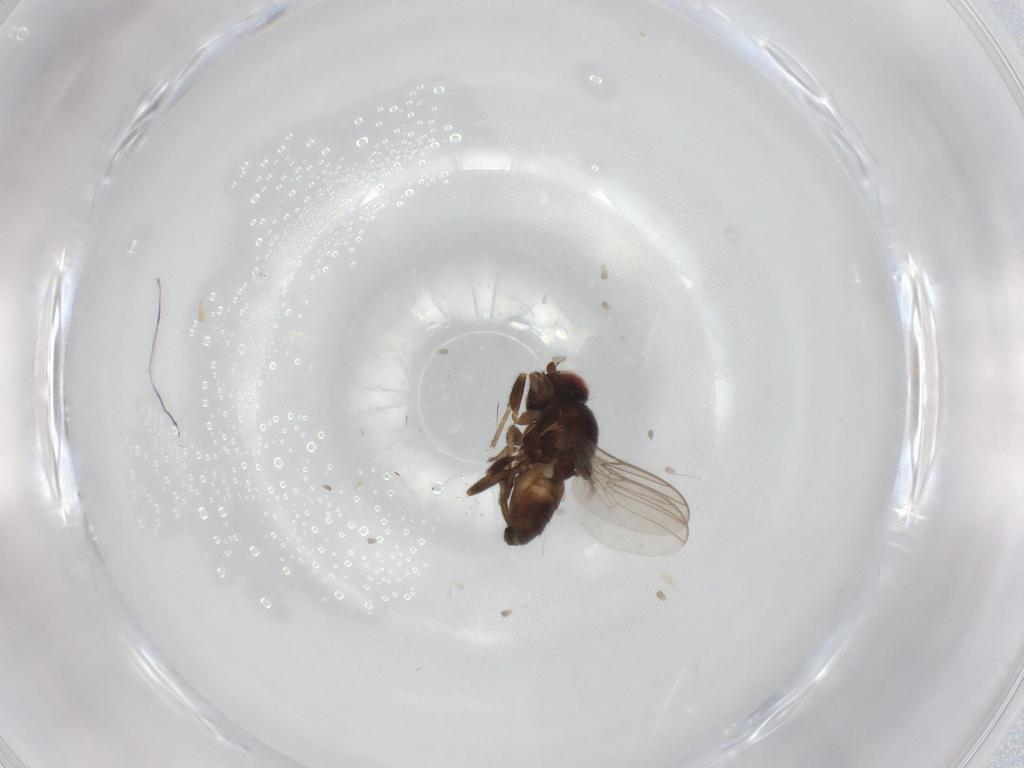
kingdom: Animalia
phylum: Arthropoda
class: Insecta
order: Diptera
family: Chloropidae
